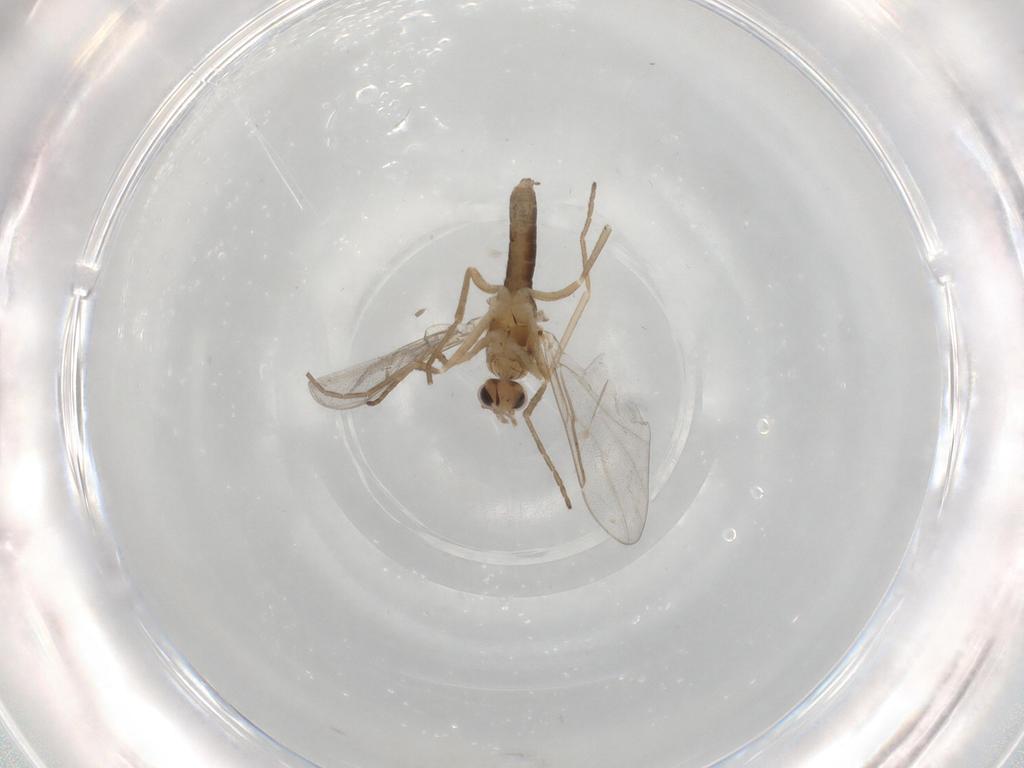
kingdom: Animalia
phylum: Arthropoda
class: Insecta
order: Diptera
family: Cecidomyiidae
